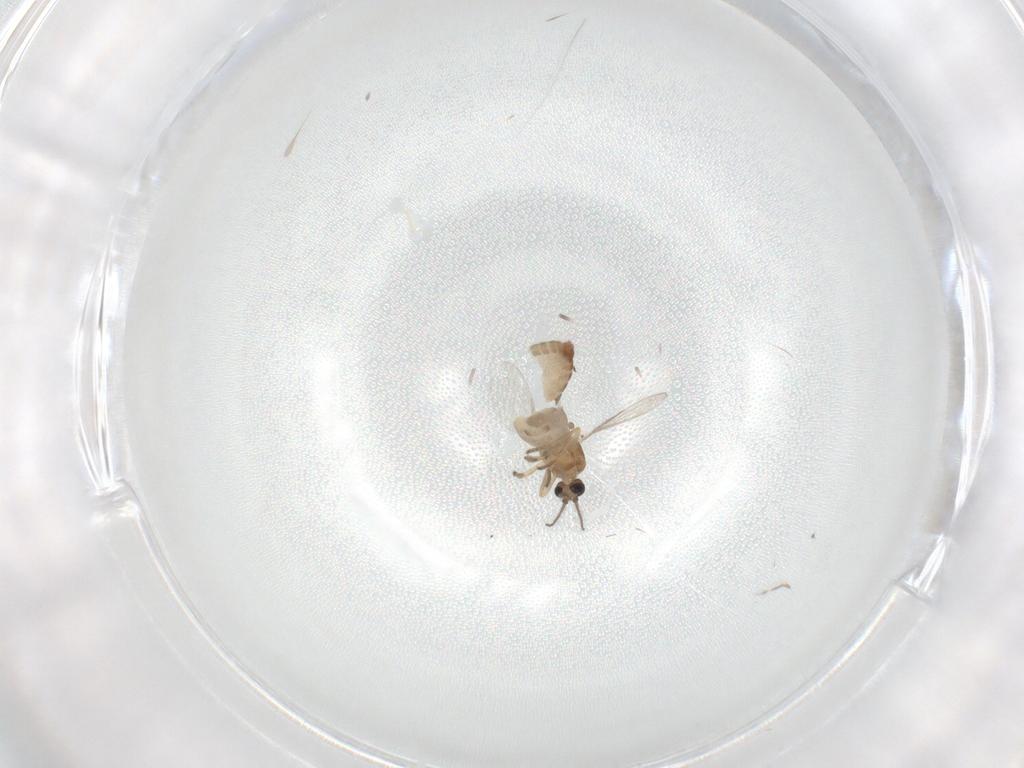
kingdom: Animalia
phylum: Arthropoda
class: Insecta
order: Diptera
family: Ceratopogonidae
